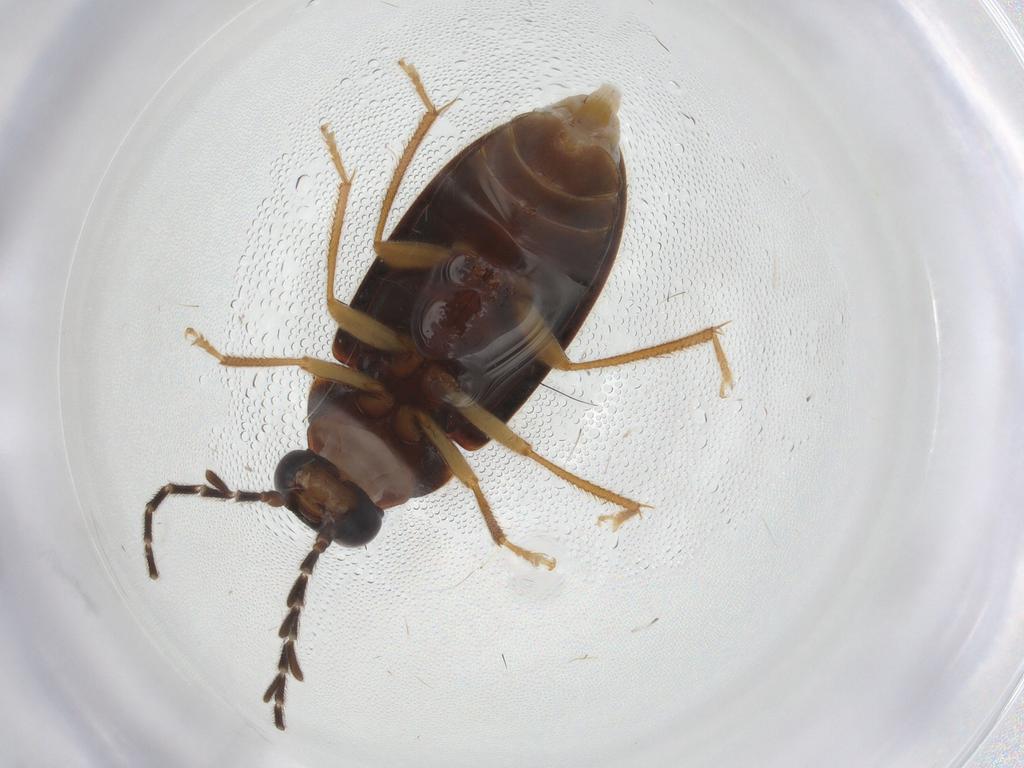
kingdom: Animalia
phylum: Arthropoda
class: Insecta
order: Coleoptera
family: Ptilodactylidae
